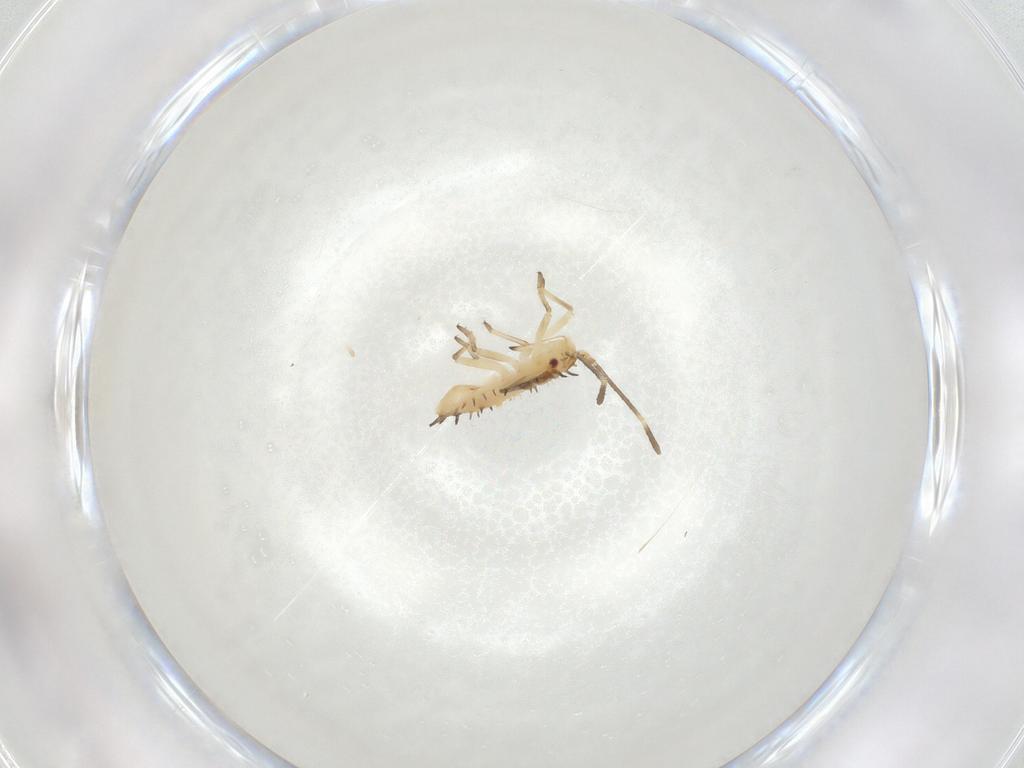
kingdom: Animalia
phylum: Arthropoda
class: Insecta
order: Hemiptera
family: Tingidae
